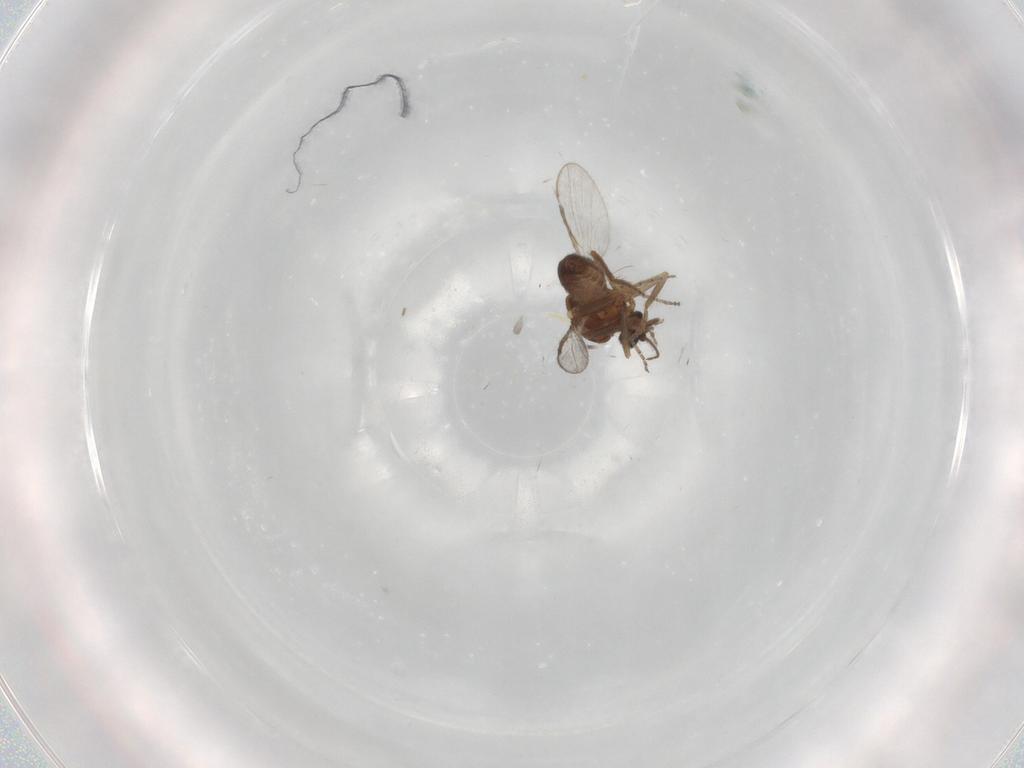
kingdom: Animalia
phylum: Arthropoda
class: Insecta
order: Diptera
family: Ceratopogonidae
